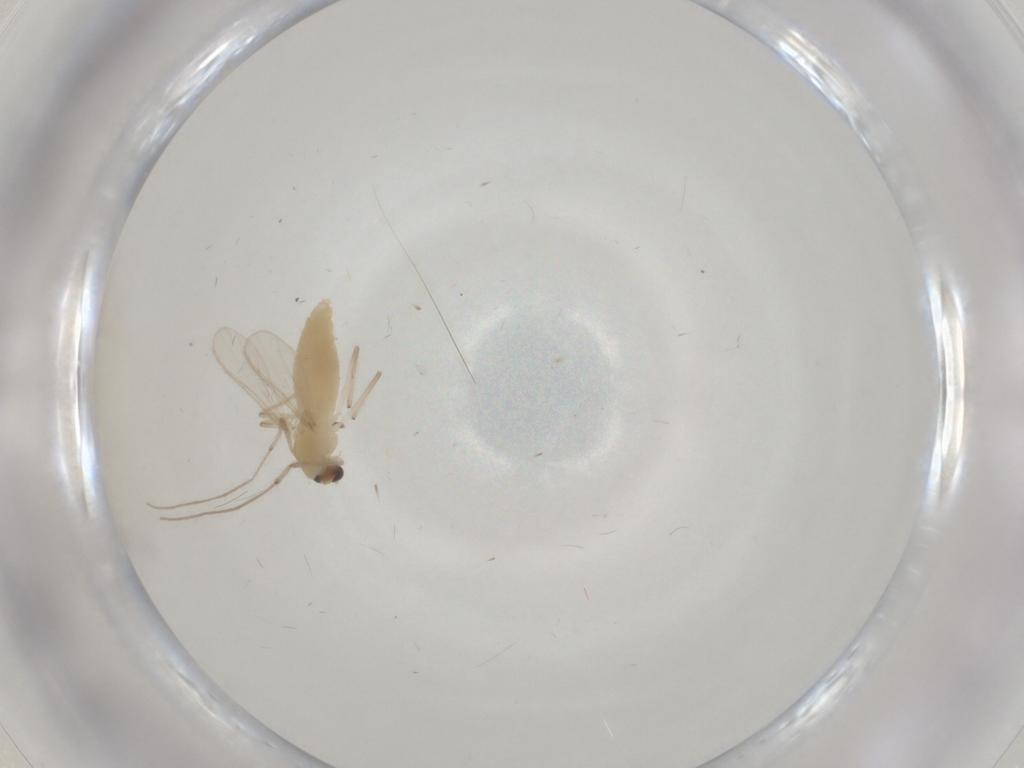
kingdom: Animalia
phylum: Arthropoda
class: Insecta
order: Diptera
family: Chironomidae
